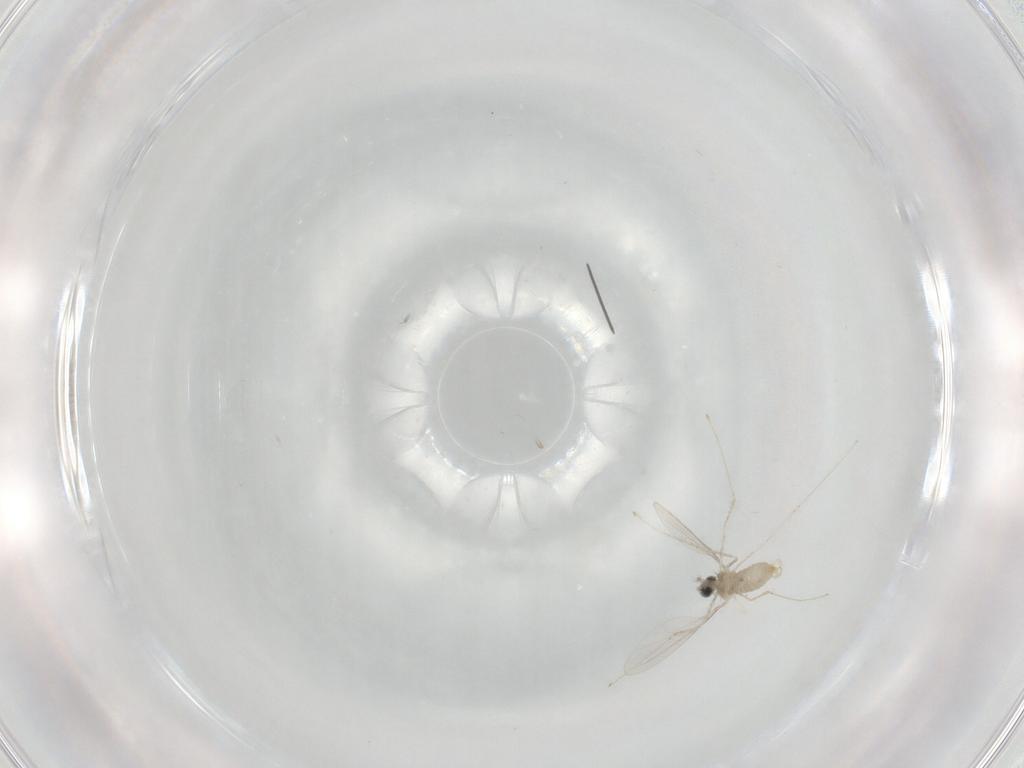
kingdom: Animalia
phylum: Arthropoda
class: Insecta
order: Diptera
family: Cecidomyiidae
